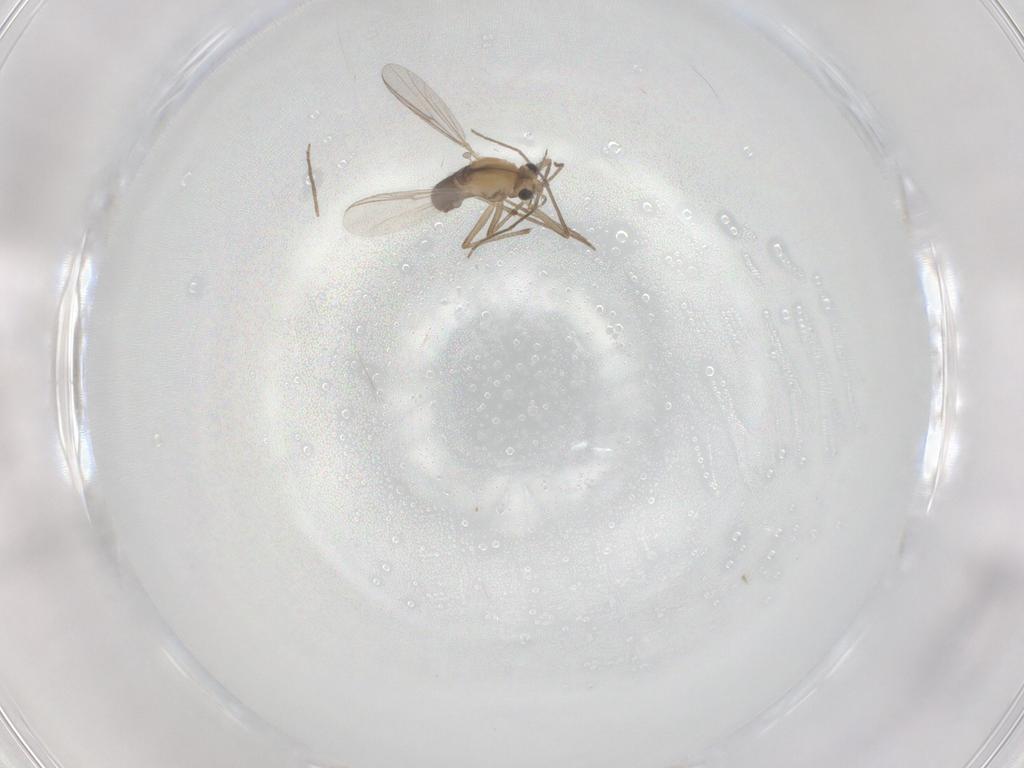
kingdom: Animalia
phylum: Arthropoda
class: Insecta
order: Diptera
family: Chironomidae
